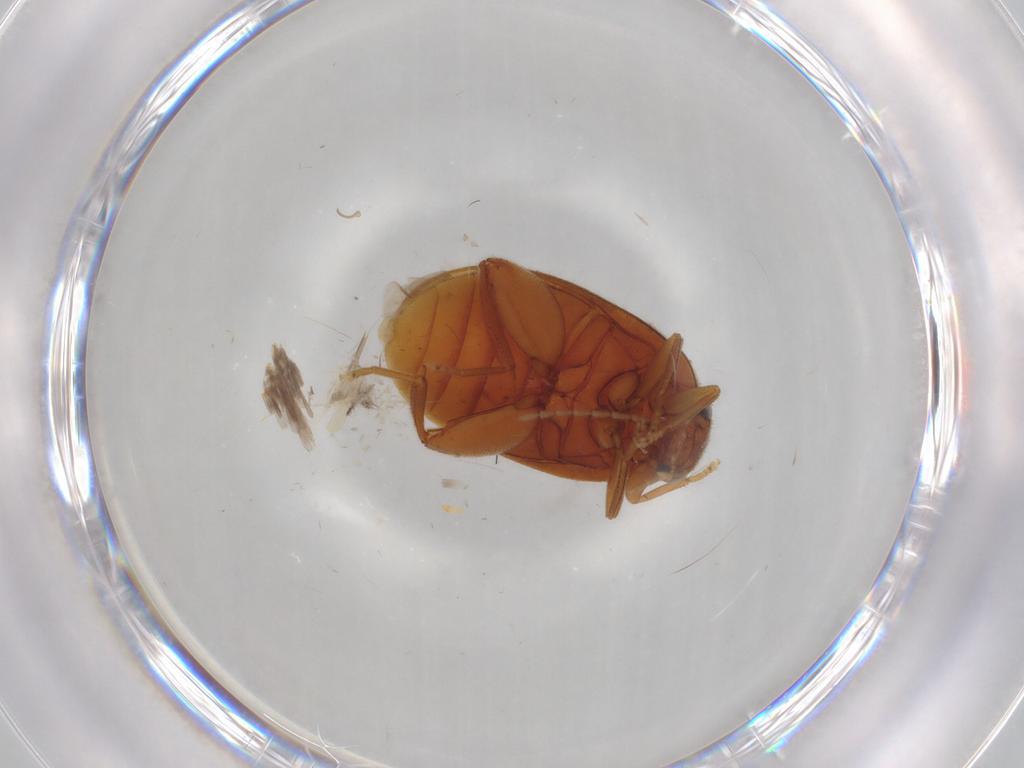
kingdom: Animalia
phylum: Arthropoda
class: Insecta
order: Coleoptera
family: Scirtidae
